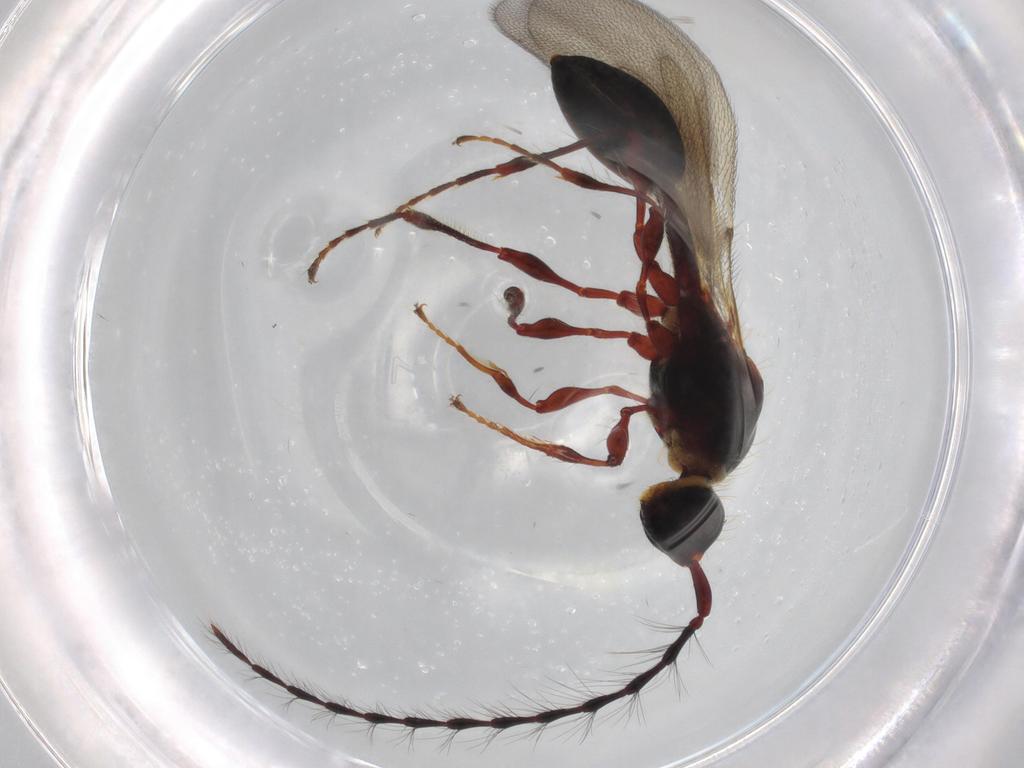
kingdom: Animalia
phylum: Arthropoda
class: Insecta
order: Hymenoptera
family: Diapriidae
